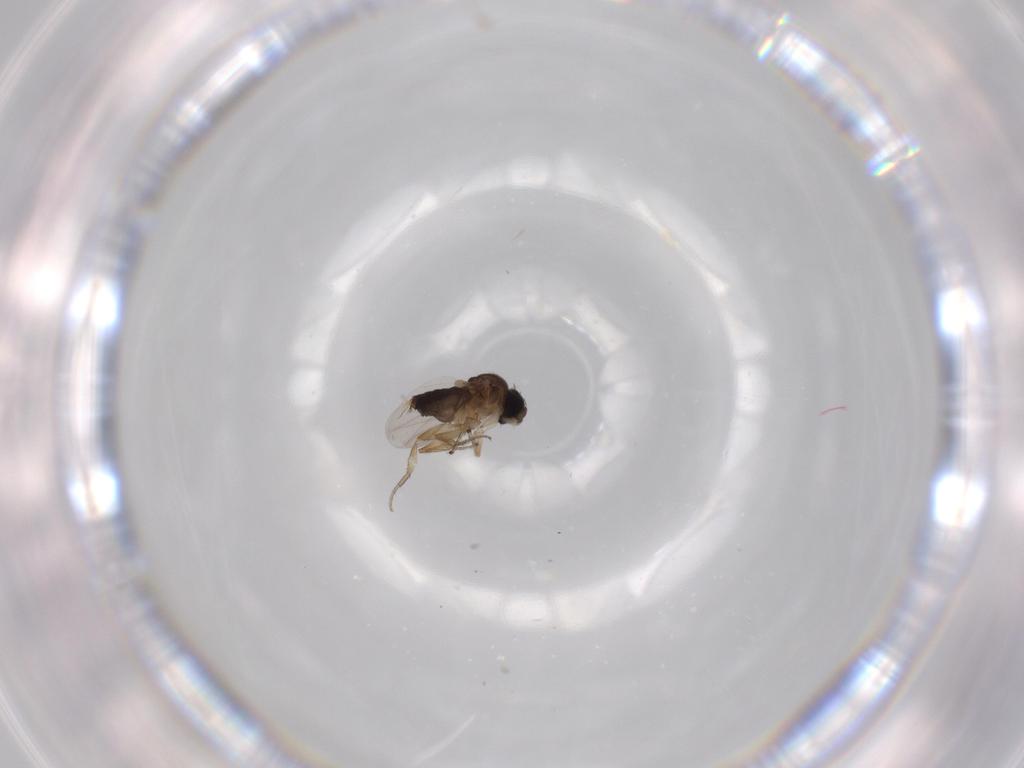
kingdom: Animalia
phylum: Arthropoda
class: Insecta
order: Diptera
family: Phoridae
